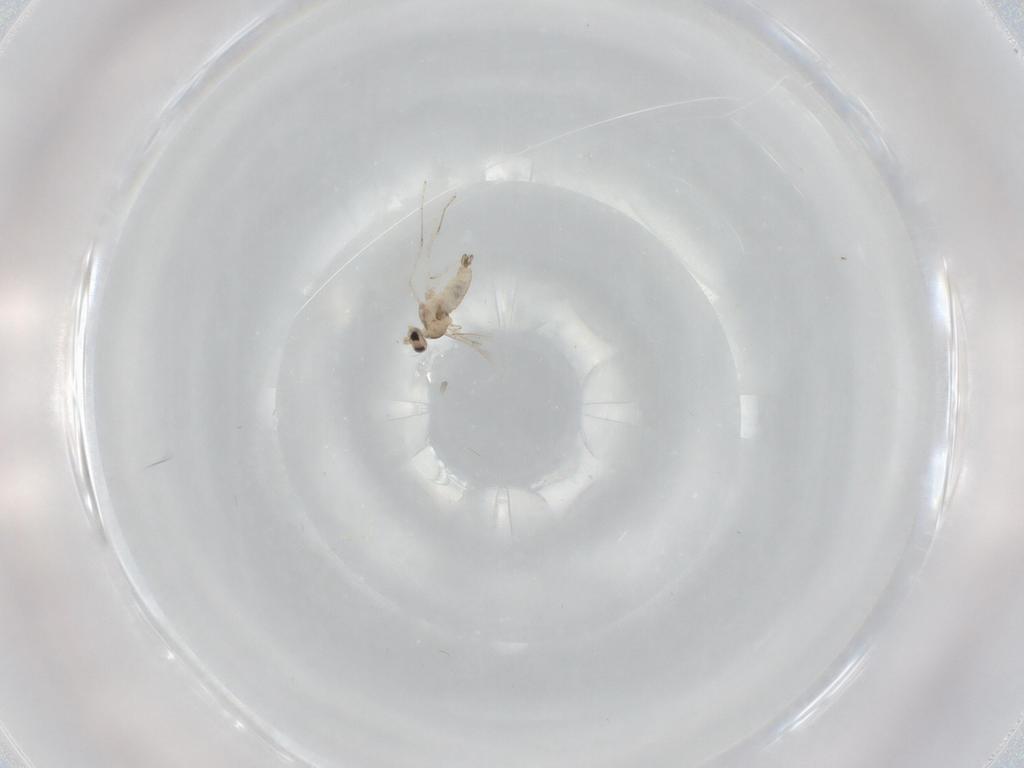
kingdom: Animalia
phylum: Arthropoda
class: Insecta
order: Diptera
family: Cecidomyiidae
